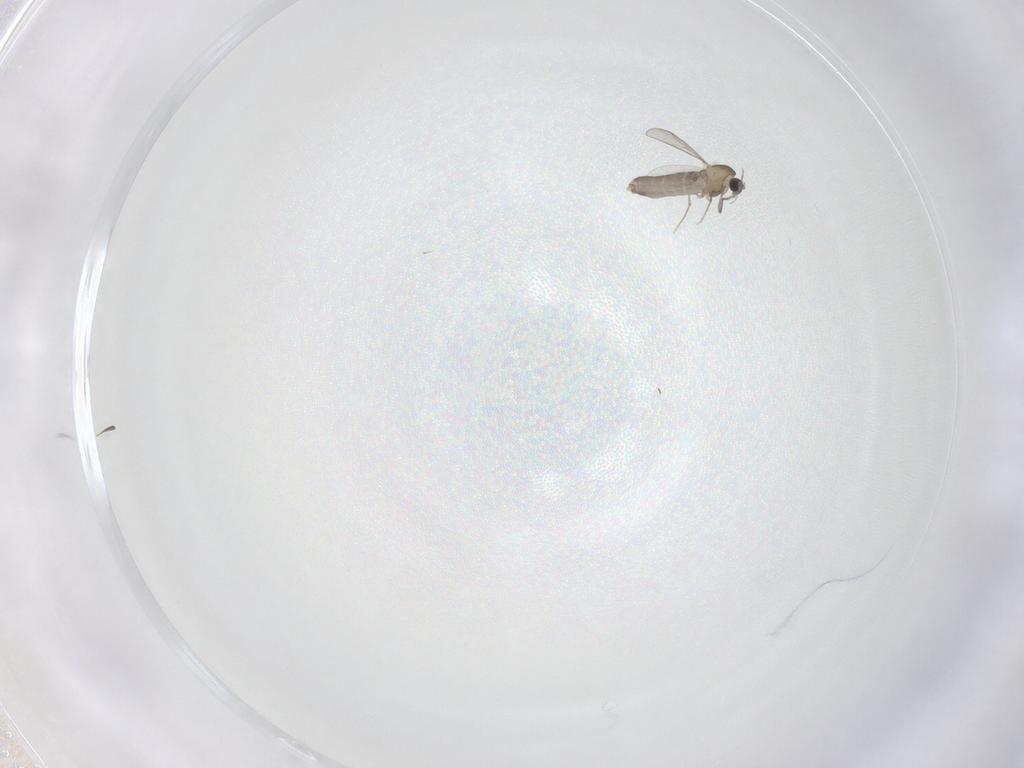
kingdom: Animalia
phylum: Arthropoda
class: Insecta
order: Diptera
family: Chironomidae
